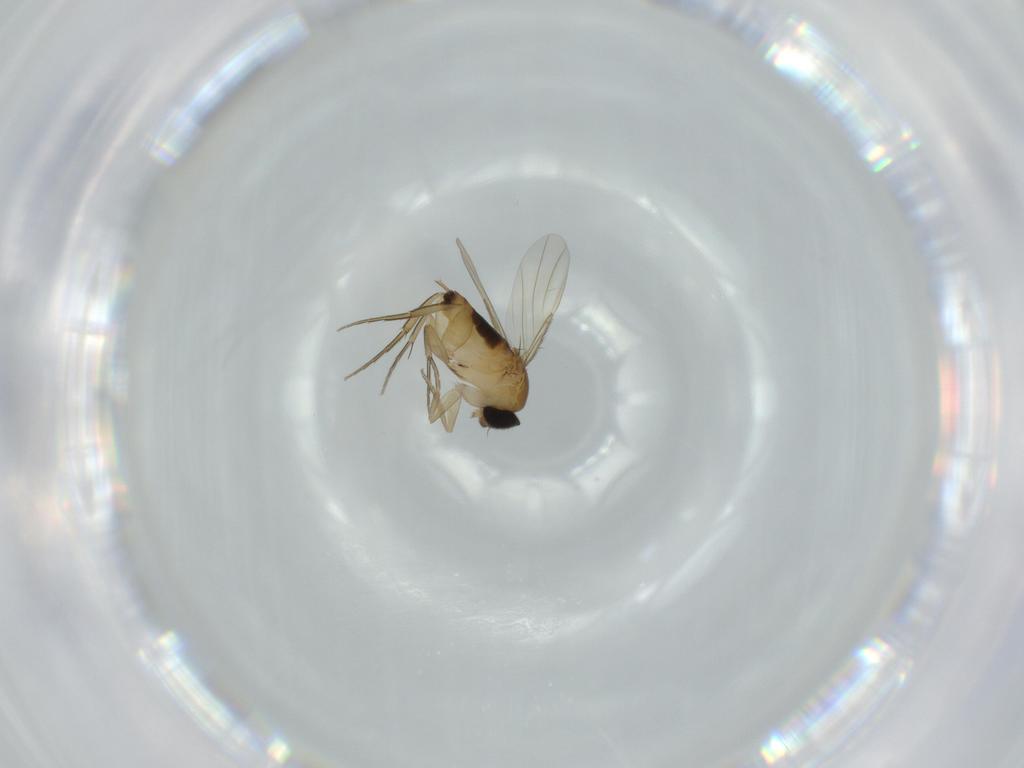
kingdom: Animalia
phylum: Arthropoda
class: Insecta
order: Diptera
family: Phoridae
